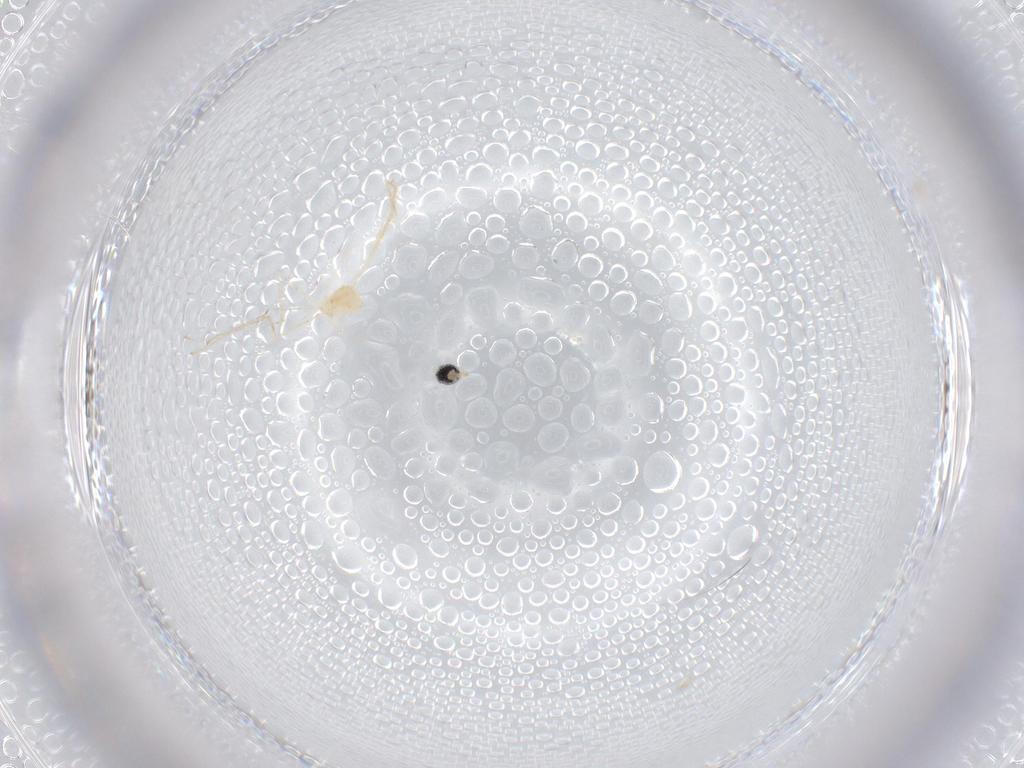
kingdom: Animalia
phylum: Arthropoda
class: Insecta
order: Diptera
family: Cecidomyiidae
